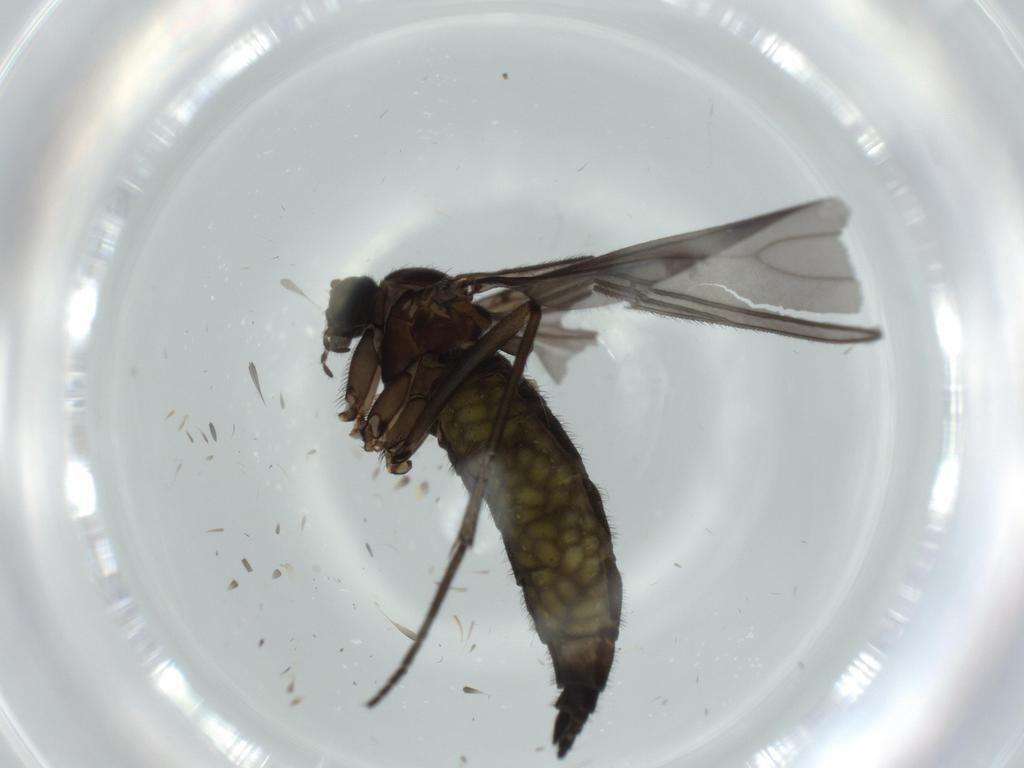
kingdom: Animalia
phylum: Arthropoda
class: Insecta
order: Diptera
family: Sciaridae
